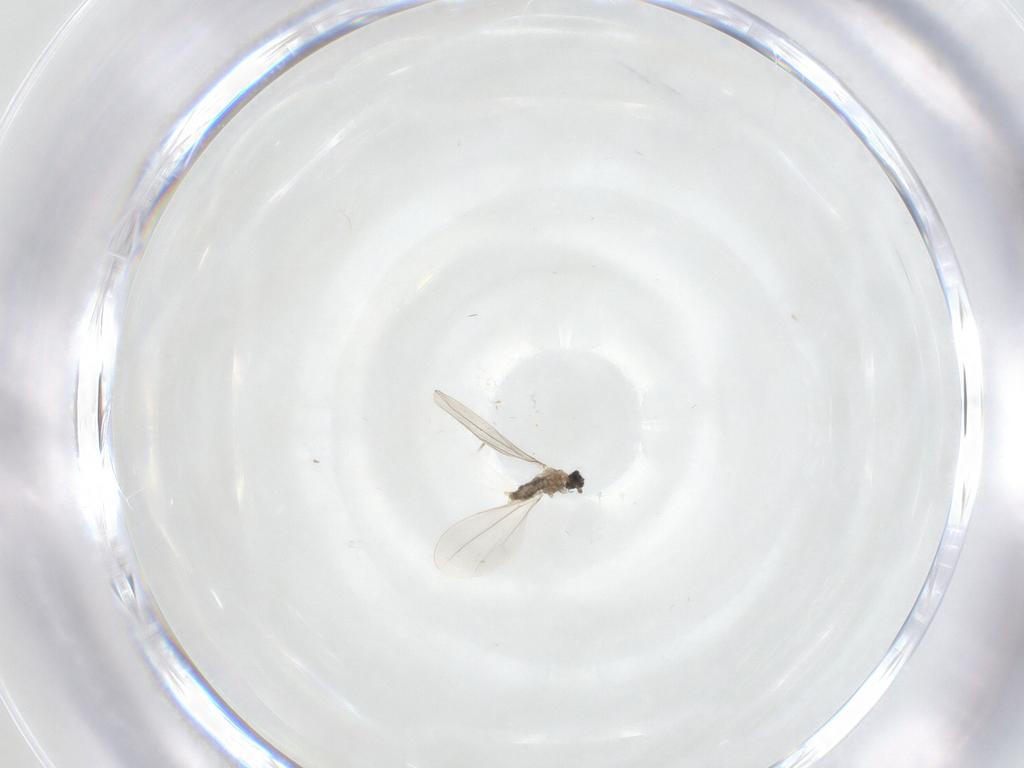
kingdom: Animalia
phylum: Arthropoda
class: Insecta
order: Diptera
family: Cecidomyiidae
